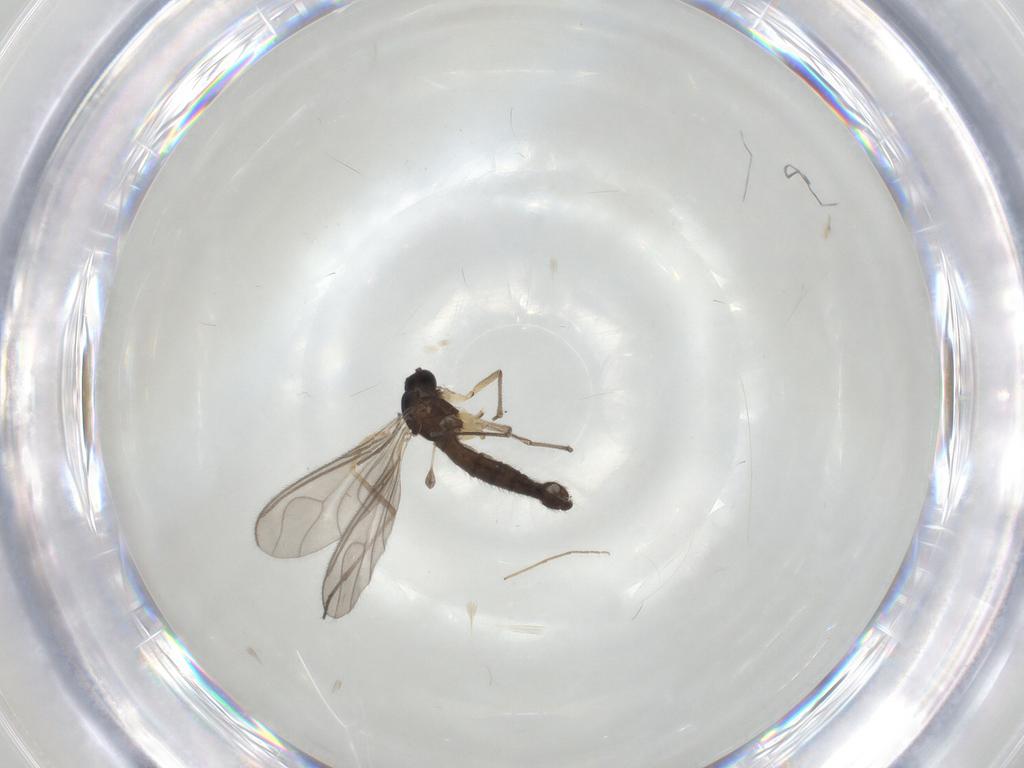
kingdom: Animalia
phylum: Arthropoda
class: Insecta
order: Diptera
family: Sciaridae
